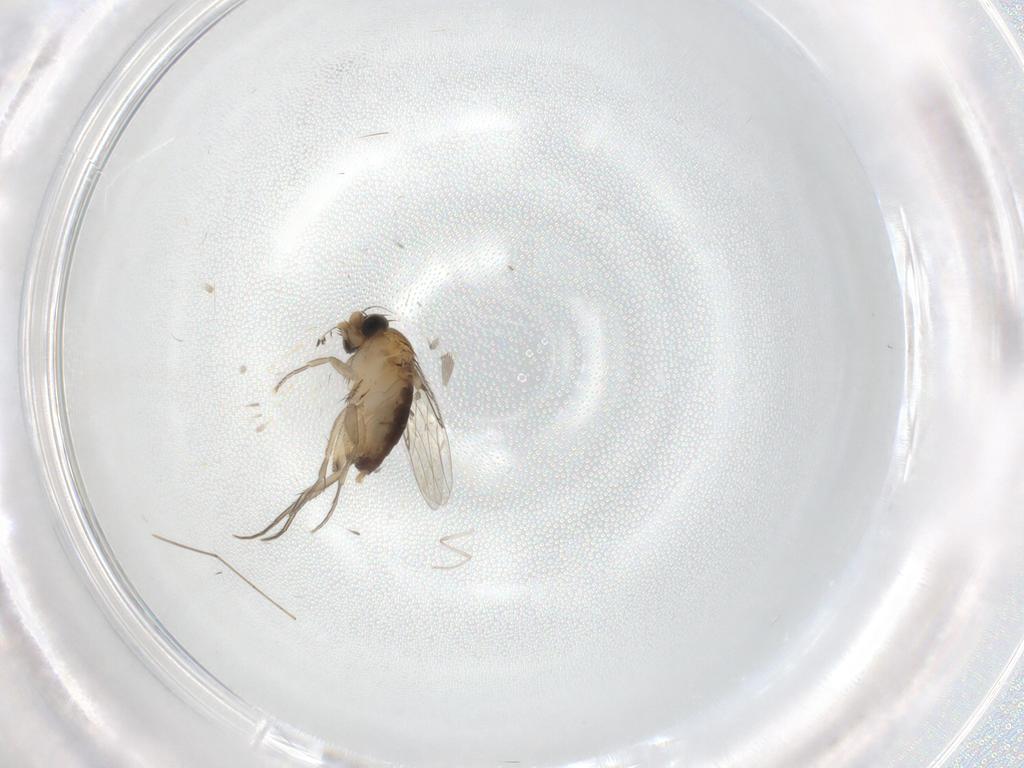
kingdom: Animalia
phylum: Arthropoda
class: Insecta
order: Diptera
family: Phoridae
